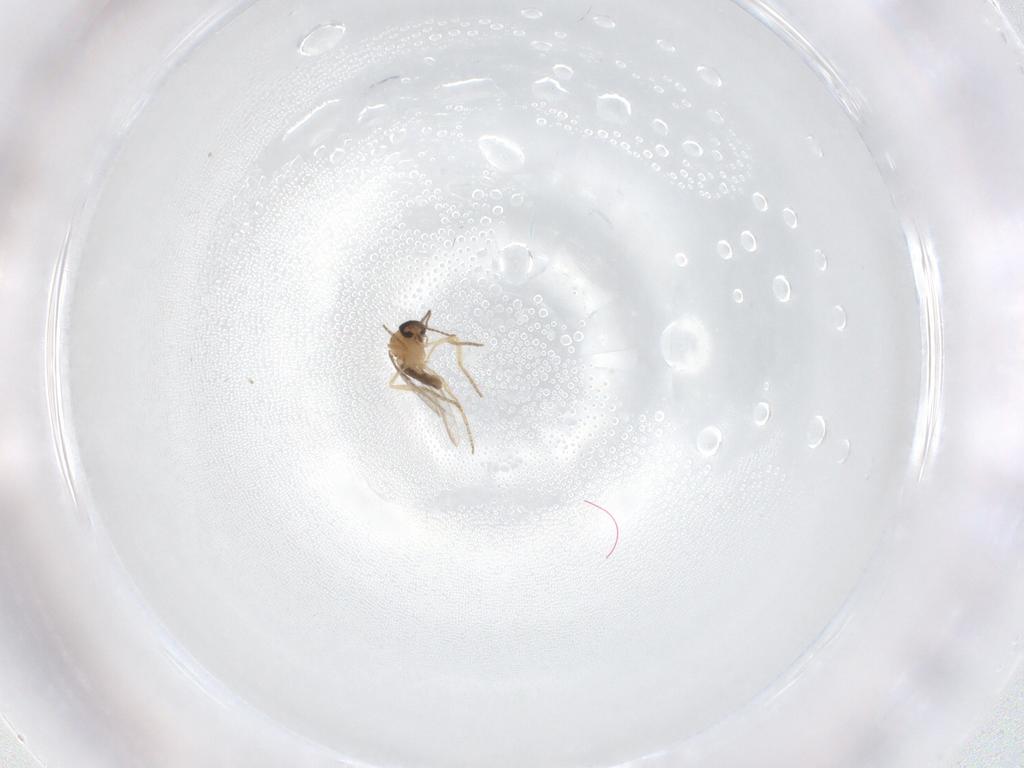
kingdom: Animalia
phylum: Arthropoda
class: Insecta
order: Diptera
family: Ceratopogonidae
